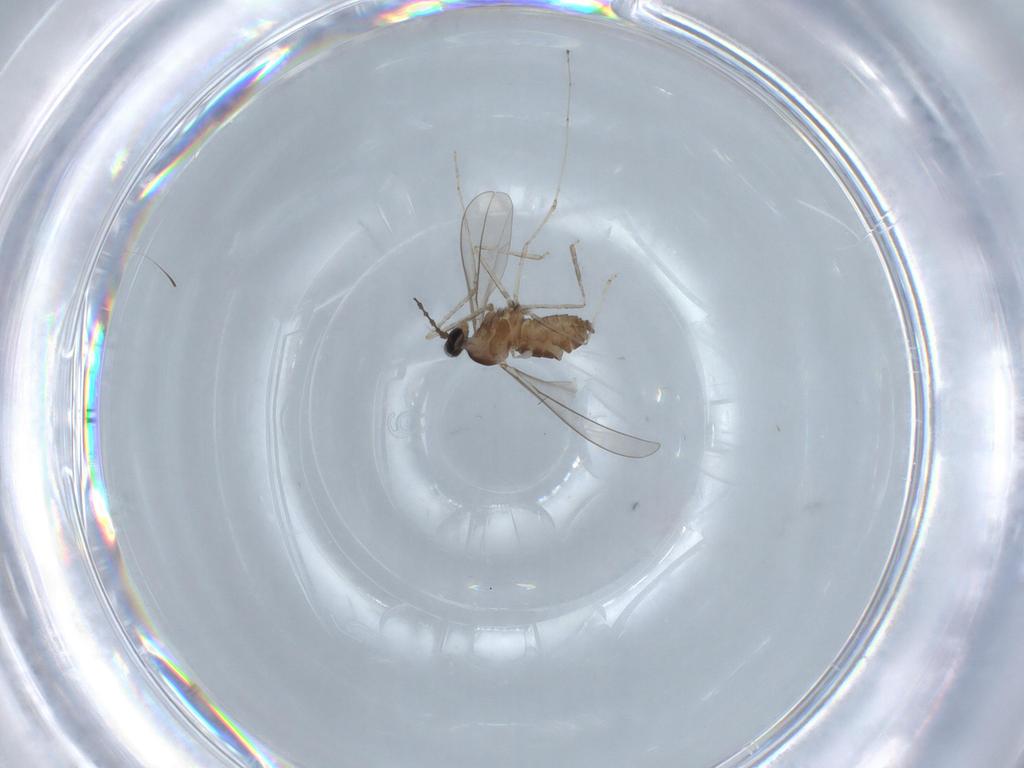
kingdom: Animalia
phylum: Arthropoda
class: Insecta
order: Diptera
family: Cecidomyiidae
